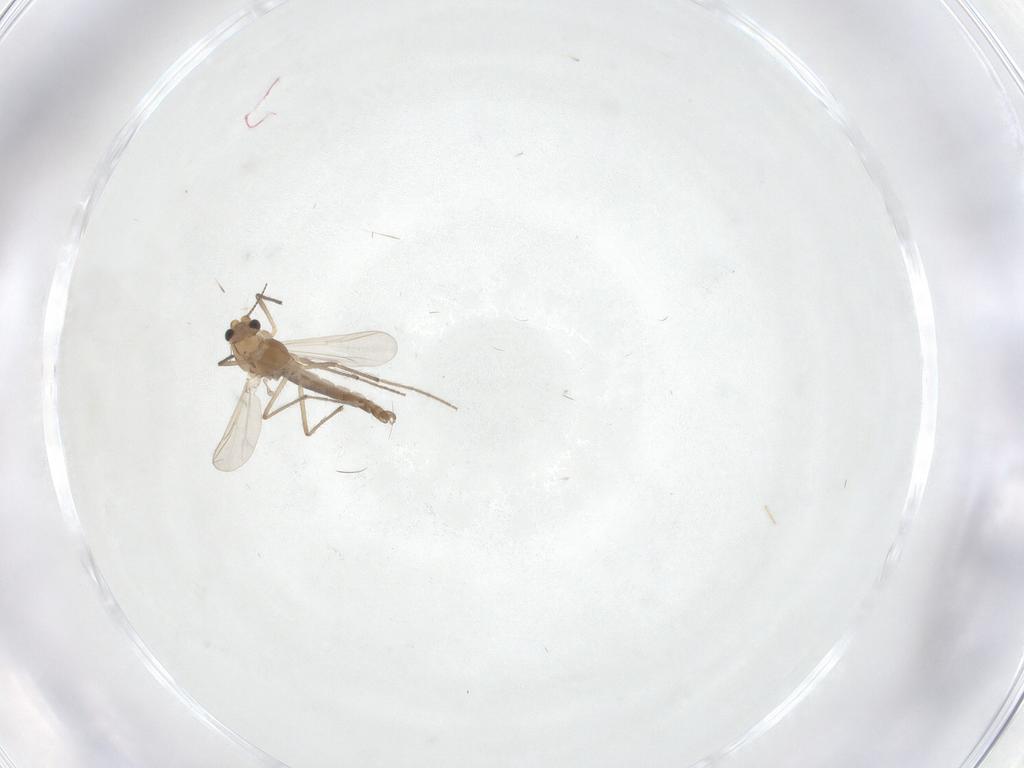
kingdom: Animalia
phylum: Arthropoda
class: Insecta
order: Diptera
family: Chironomidae
